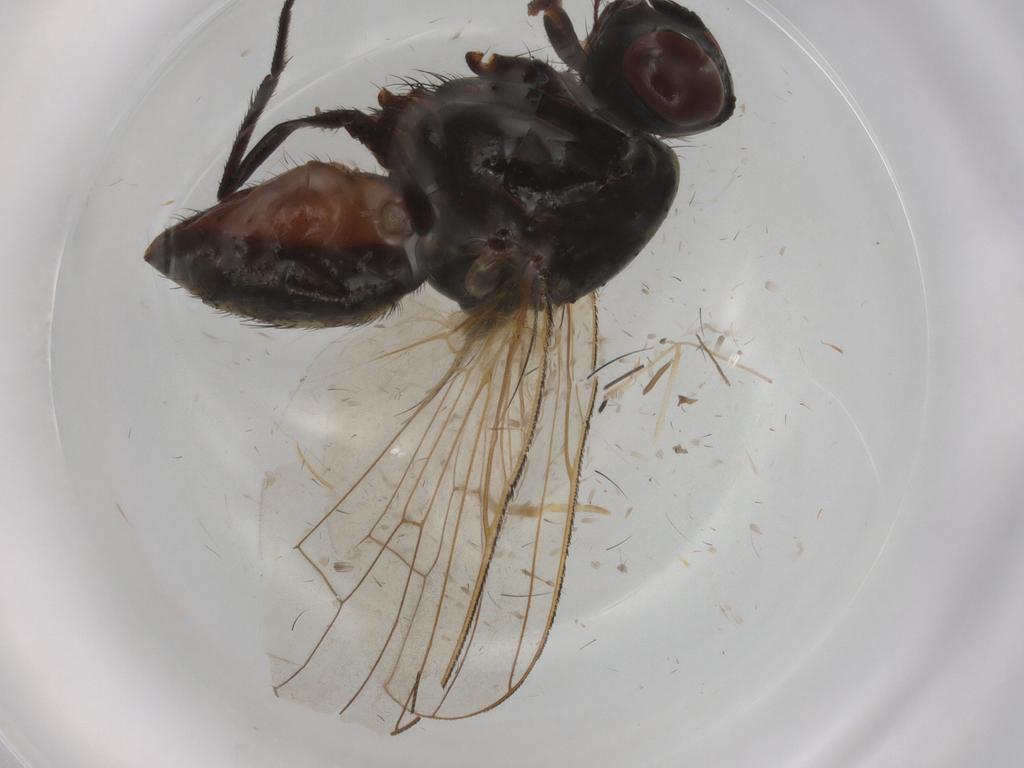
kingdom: Animalia
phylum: Arthropoda
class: Insecta
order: Diptera
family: Anthomyiidae
